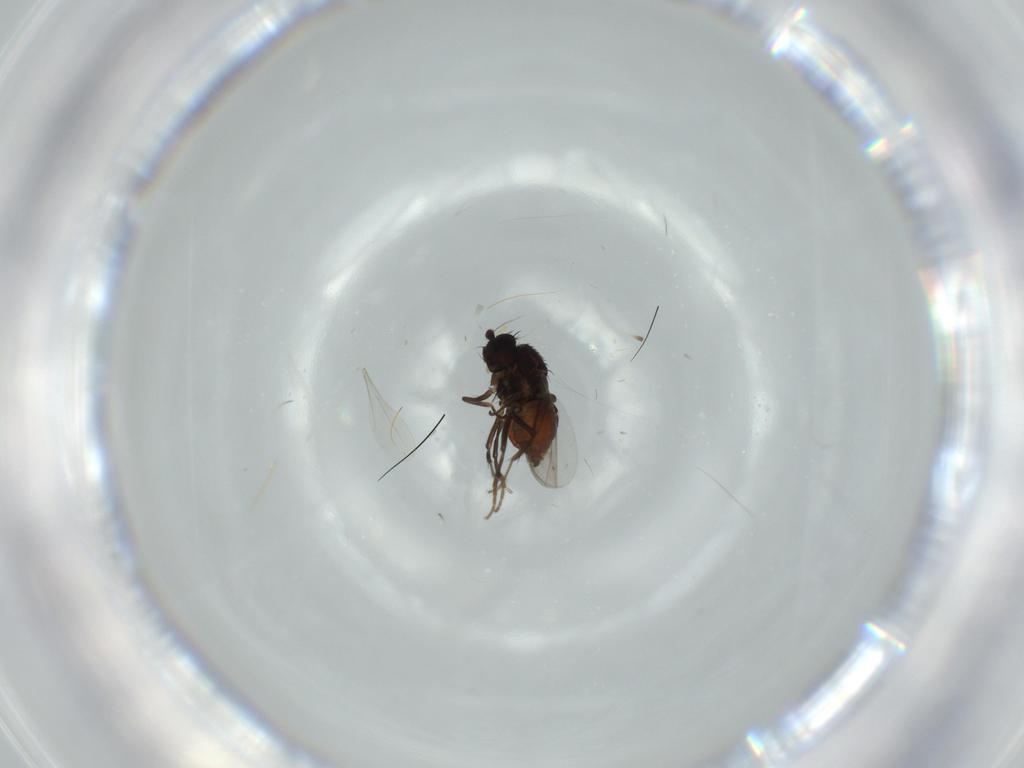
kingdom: Animalia
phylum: Arthropoda
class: Insecta
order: Diptera
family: Sphaeroceridae
